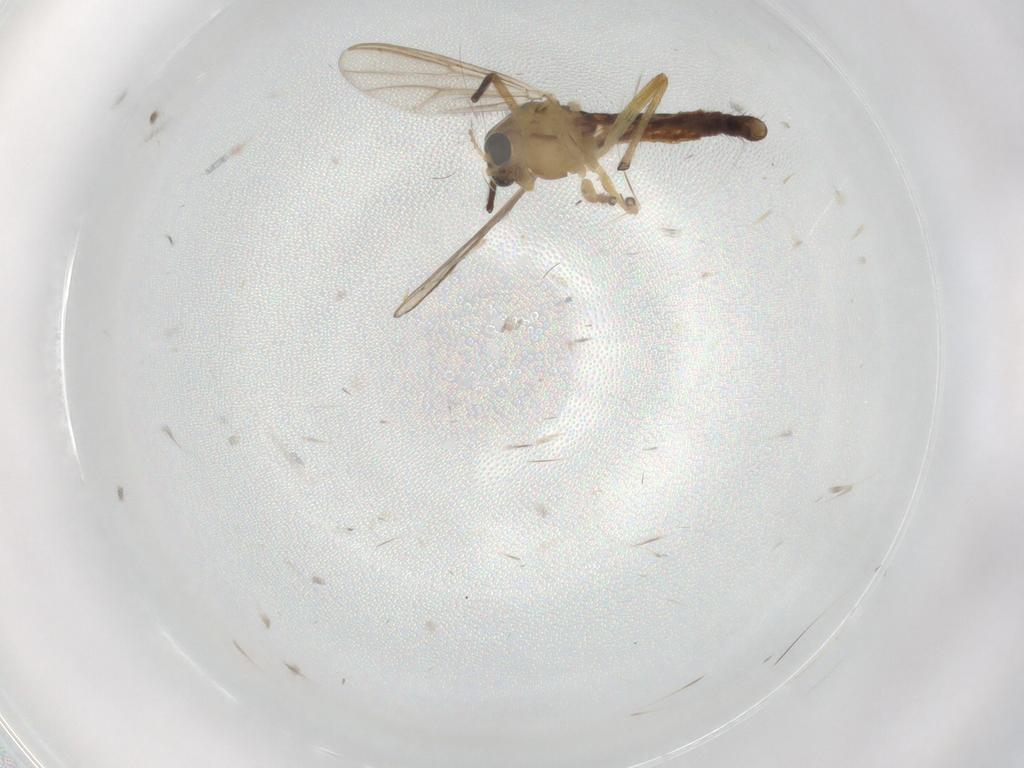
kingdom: Animalia
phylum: Arthropoda
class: Insecta
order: Diptera
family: Chironomidae
